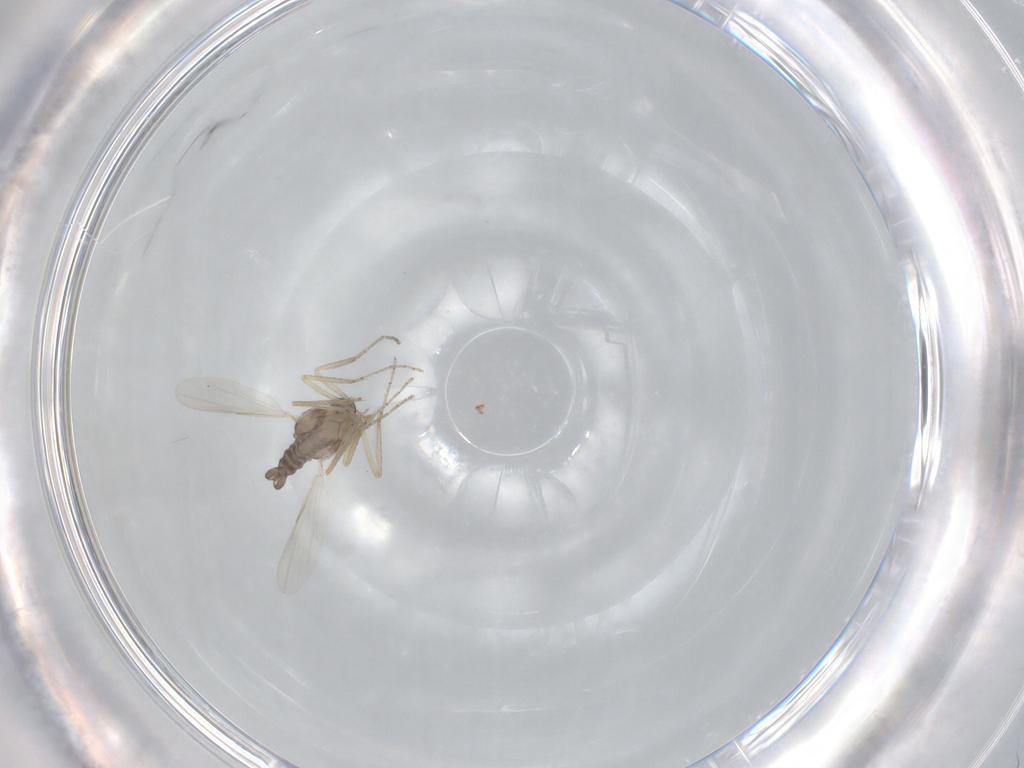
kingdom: Animalia
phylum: Arthropoda
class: Insecta
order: Diptera
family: Ceratopogonidae
